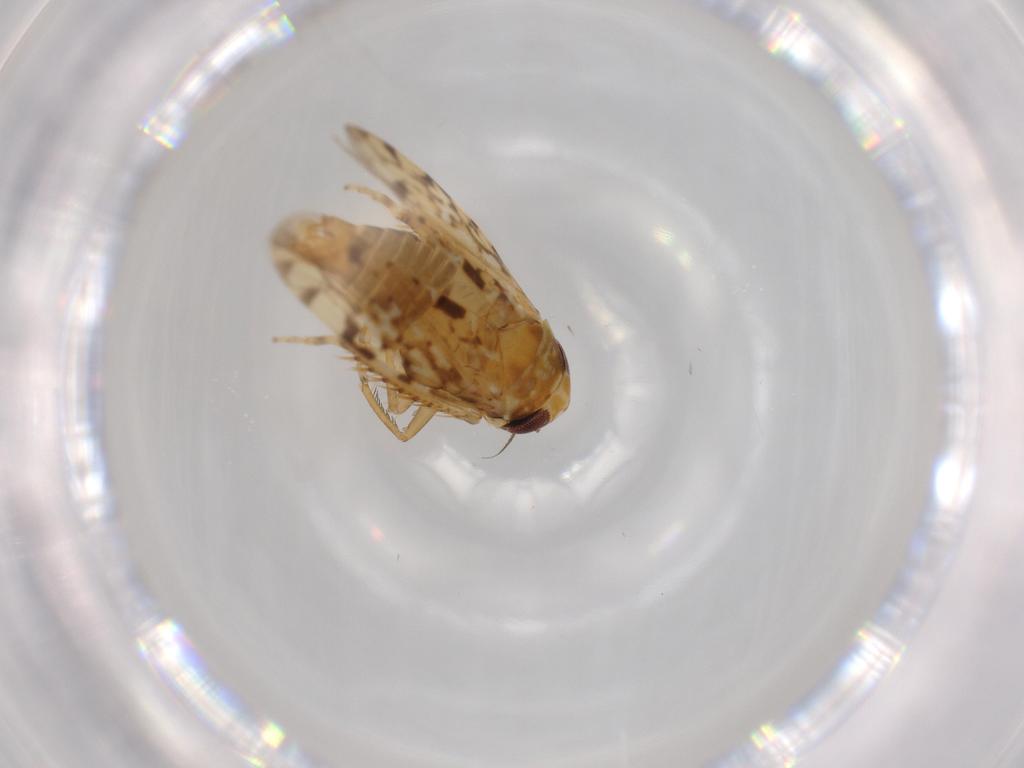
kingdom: Animalia
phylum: Arthropoda
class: Insecta
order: Hemiptera
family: Cicadellidae
